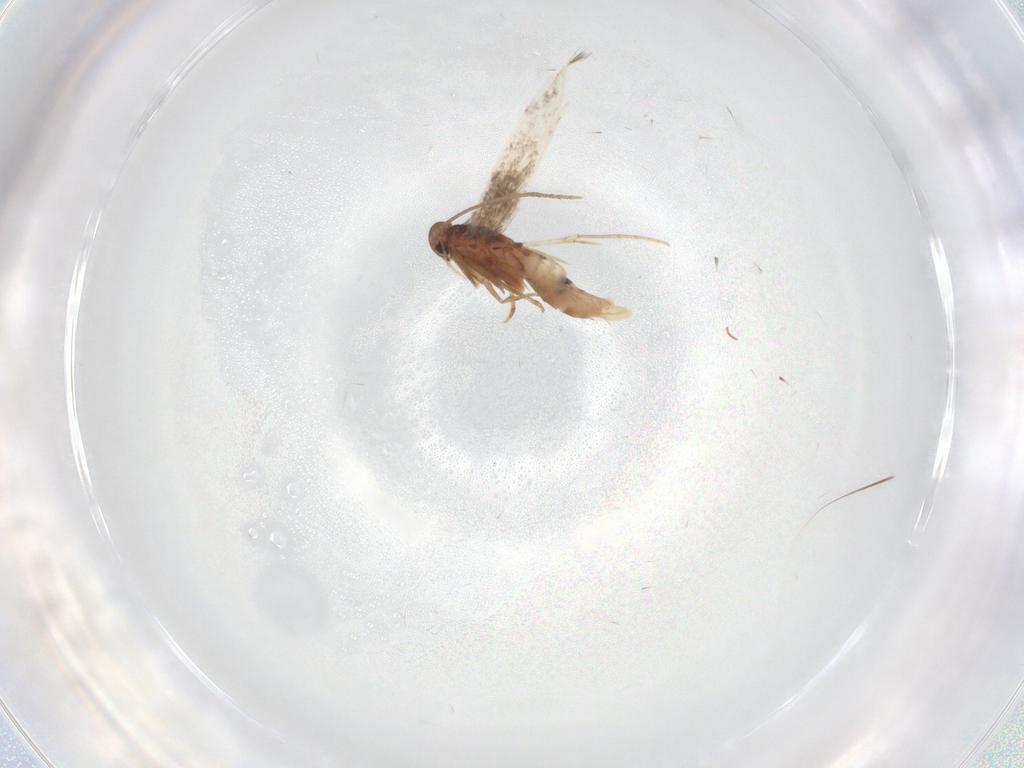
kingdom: Animalia
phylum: Arthropoda
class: Insecta
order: Lepidoptera
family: Elachistidae
